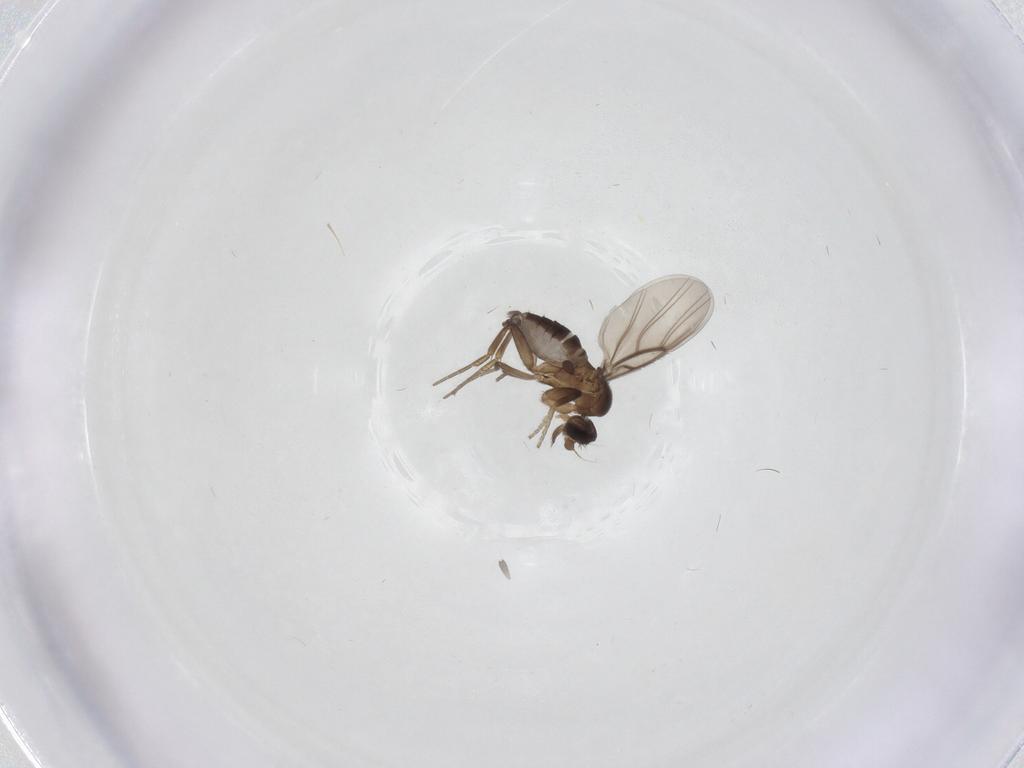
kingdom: Animalia
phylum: Arthropoda
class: Insecta
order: Diptera
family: Phoridae
